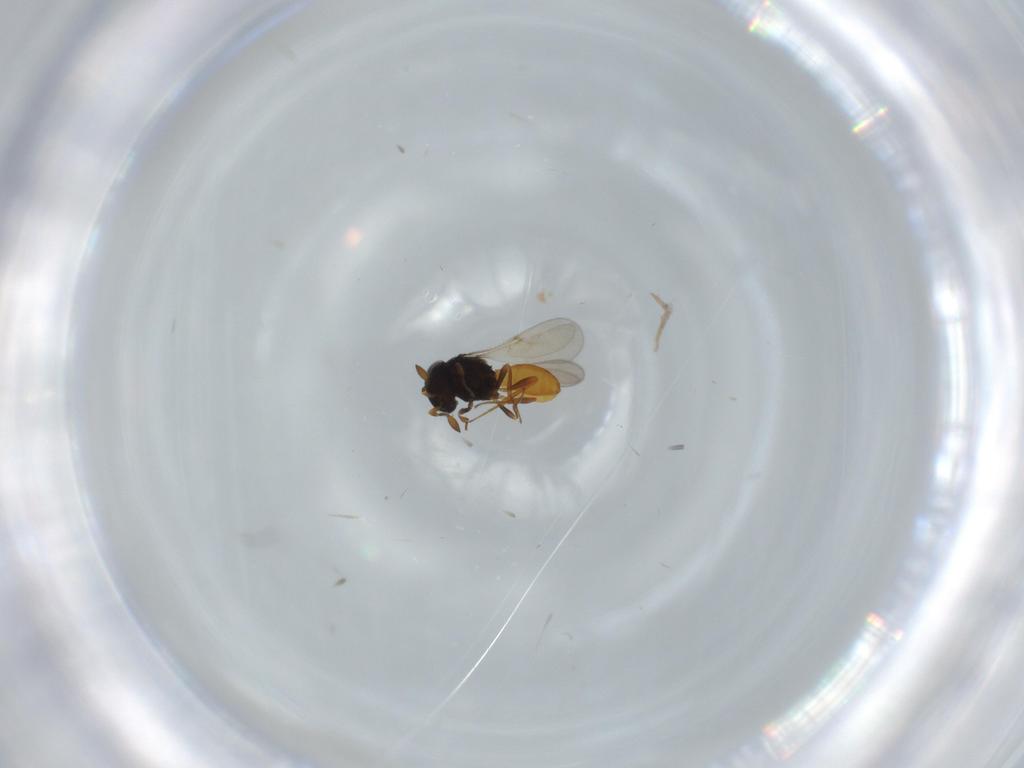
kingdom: Animalia
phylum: Arthropoda
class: Insecta
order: Hymenoptera
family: Scelionidae
